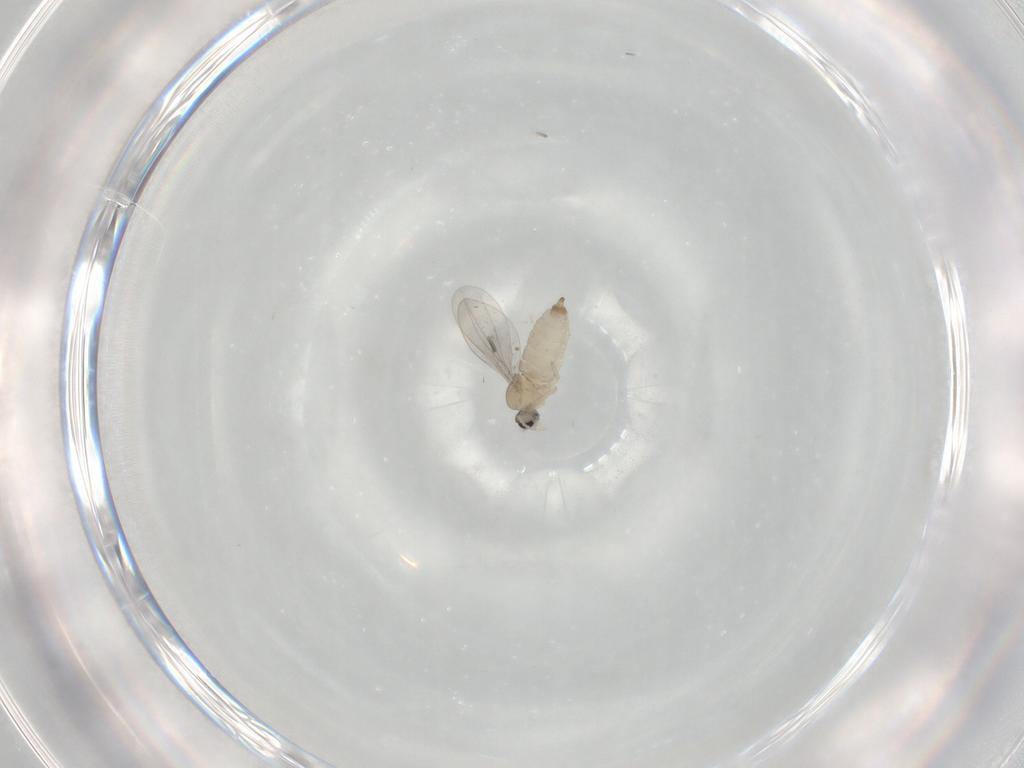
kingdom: Animalia
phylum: Arthropoda
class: Insecta
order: Diptera
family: Cecidomyiidae
